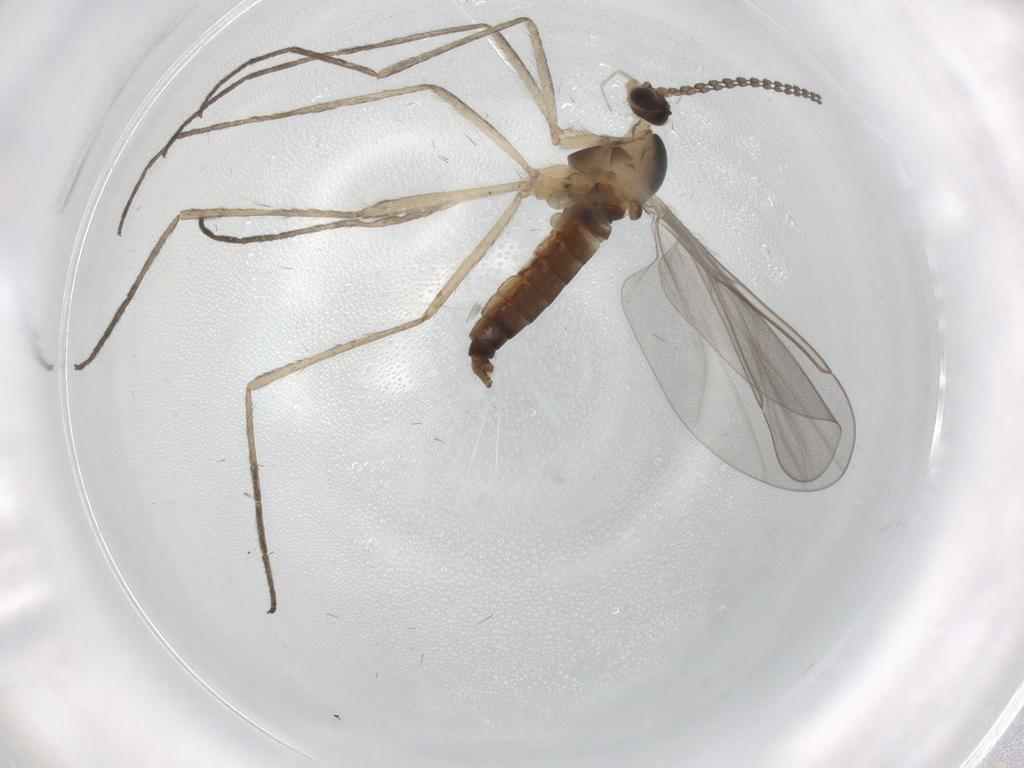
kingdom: Animalia
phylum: Arthropoda
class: Insecta
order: Diptera
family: Cecidomyiidae
